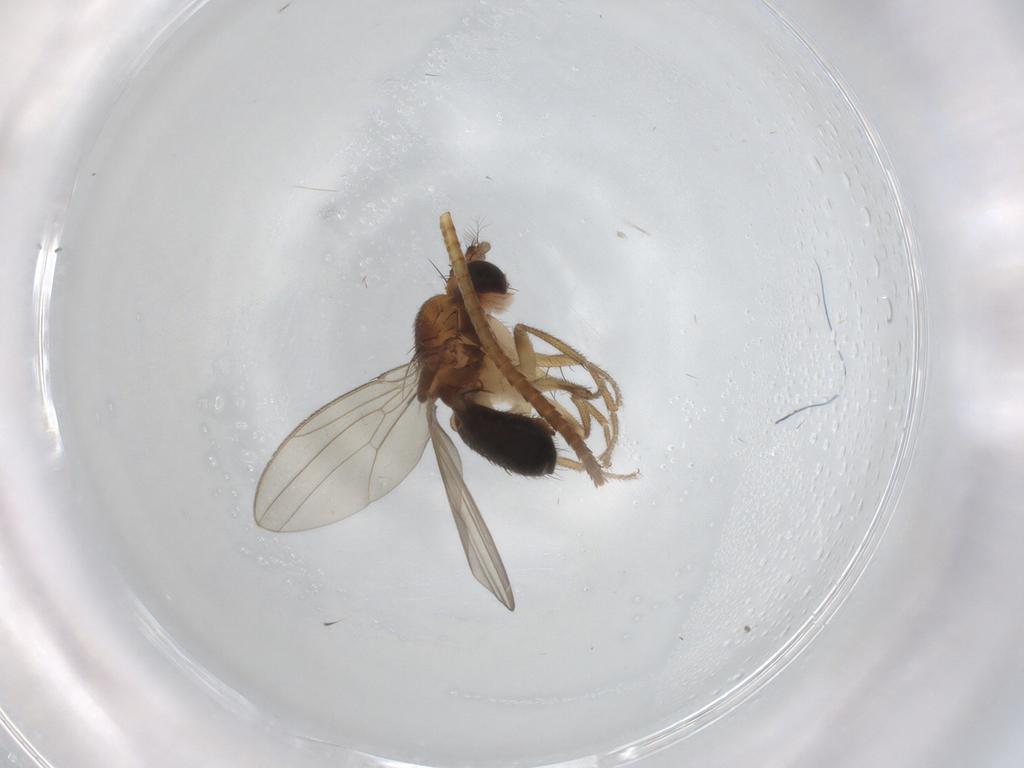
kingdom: Animalia
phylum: Arthropoda
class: Insecta
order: Diptera
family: Drosophilidae
